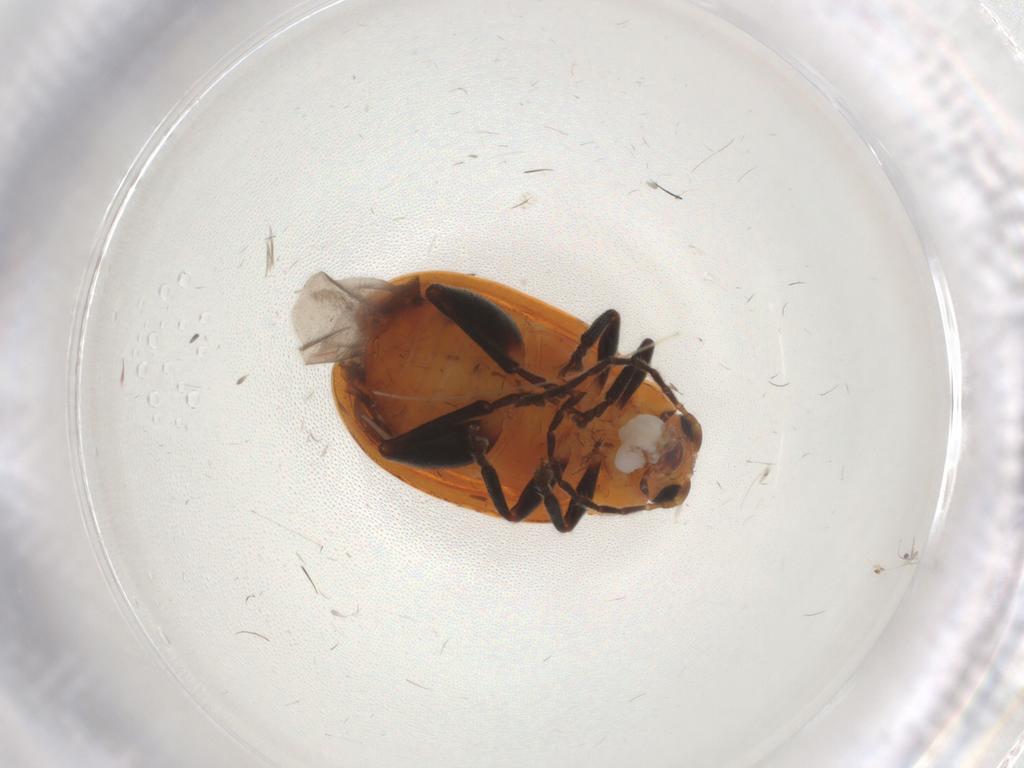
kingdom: Animalia
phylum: Arthropoda
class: Insecta
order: Coleoptera
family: Chrysomelidae
